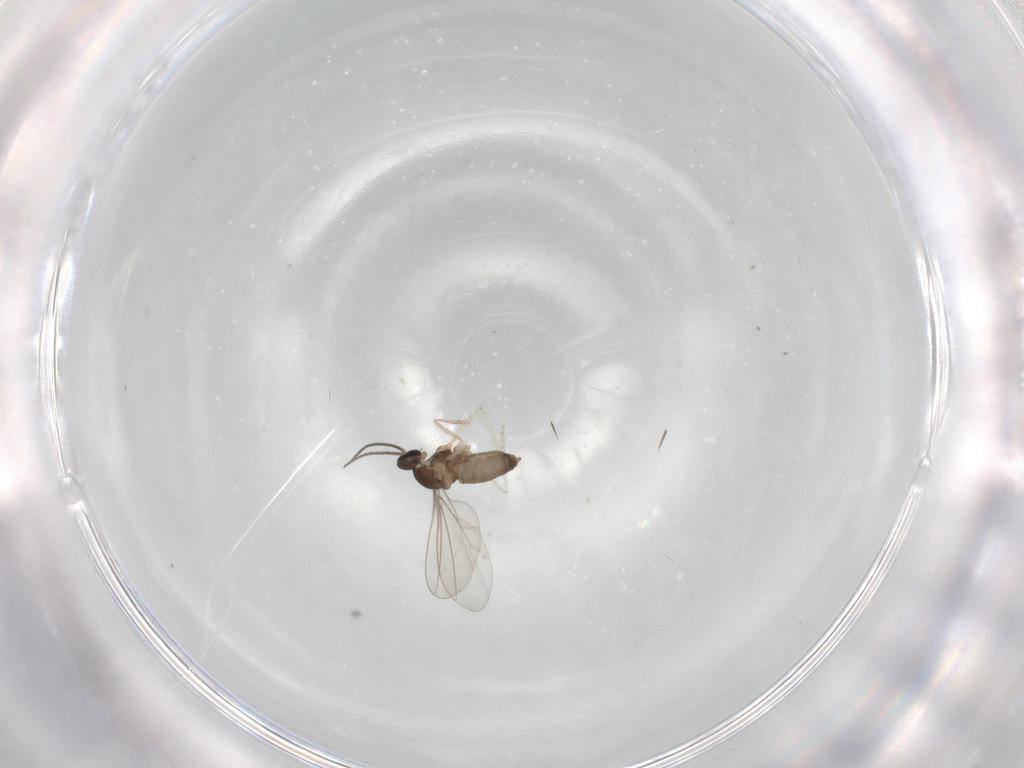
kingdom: Animalia
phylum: Arthropoda
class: Insecta
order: Diptera
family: Cecidomyiidae
